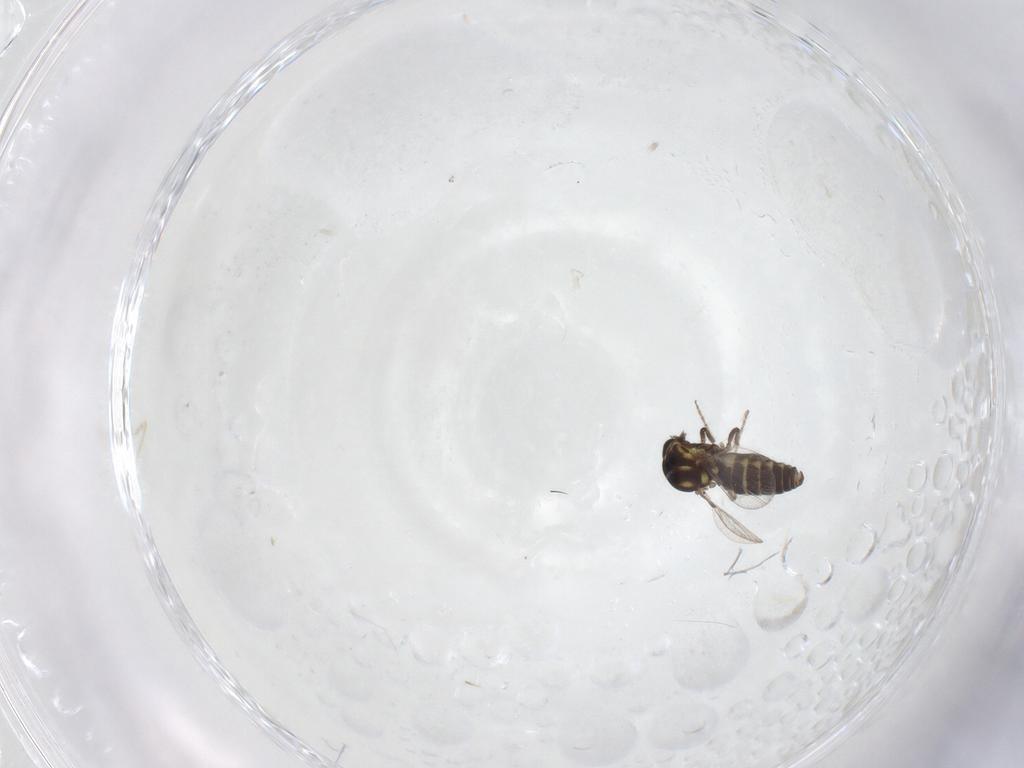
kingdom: Animalia
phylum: Arthropoda
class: Insecta
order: Diptera
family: Ceratopogonidae
